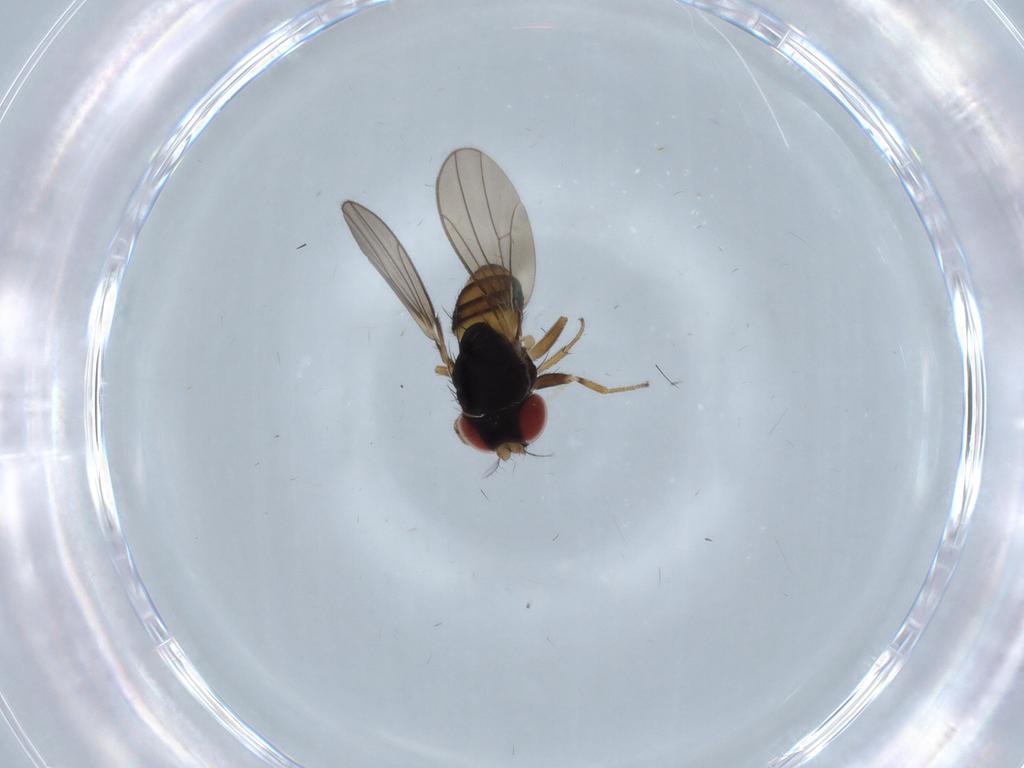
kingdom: Animalia
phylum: Arthropoda
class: Insecta
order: Diptera
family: Drosophilidae
